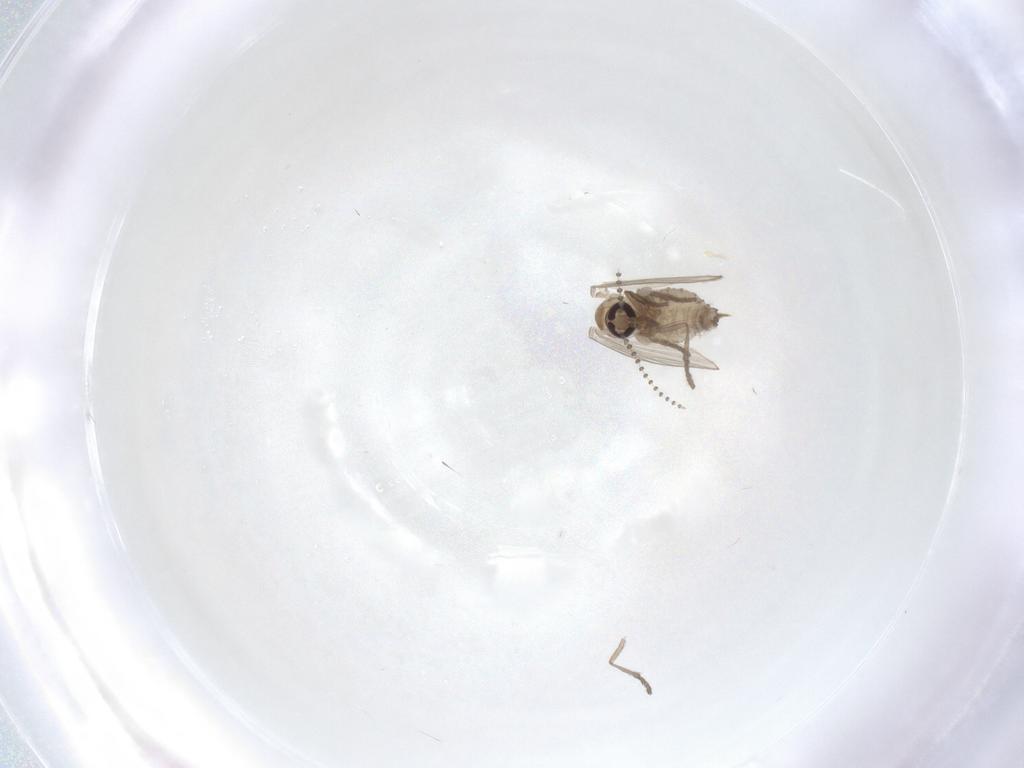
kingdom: Animalia
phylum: Arthropoda
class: Insecta
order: Diptera
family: Psychodidae
